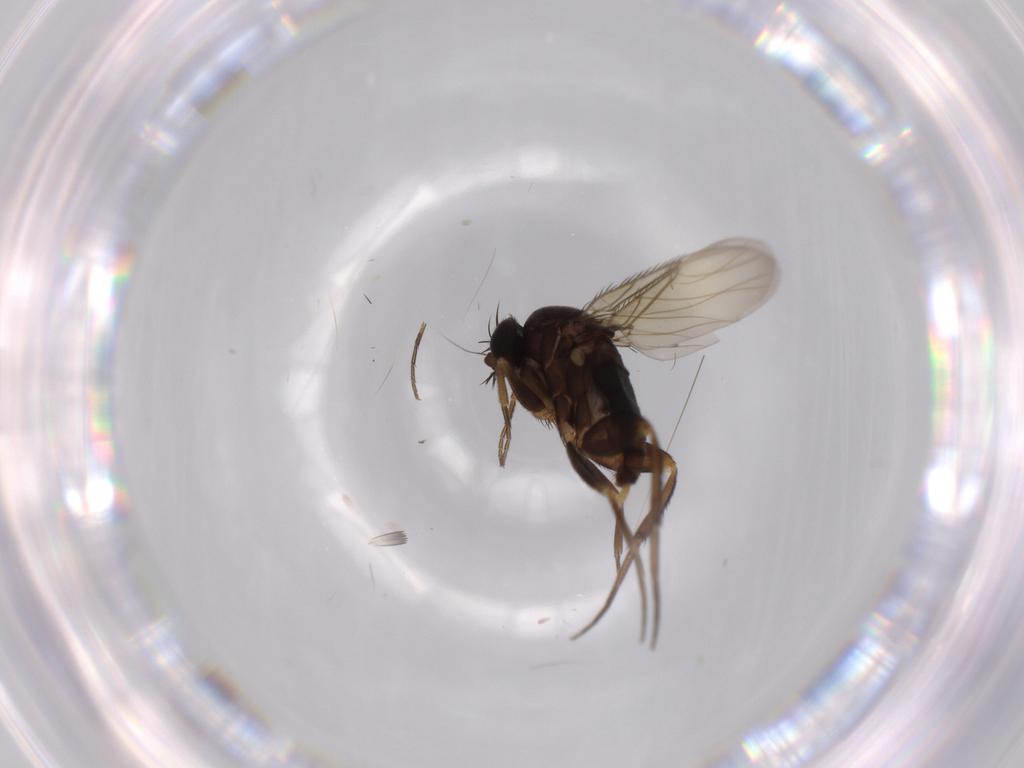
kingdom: Animalia
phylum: Arthropoda
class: Insecta
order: Diptera
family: Phoridae
